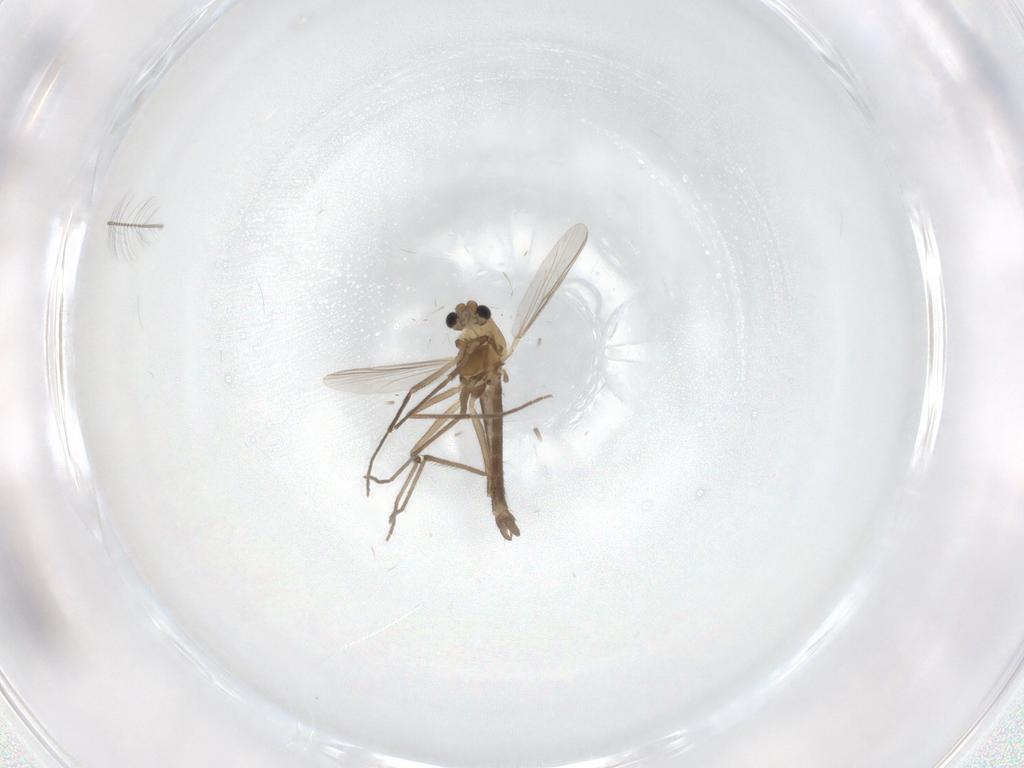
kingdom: Animalia
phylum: Arthropoda
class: Insecta
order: Diptera
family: Chironomidae
